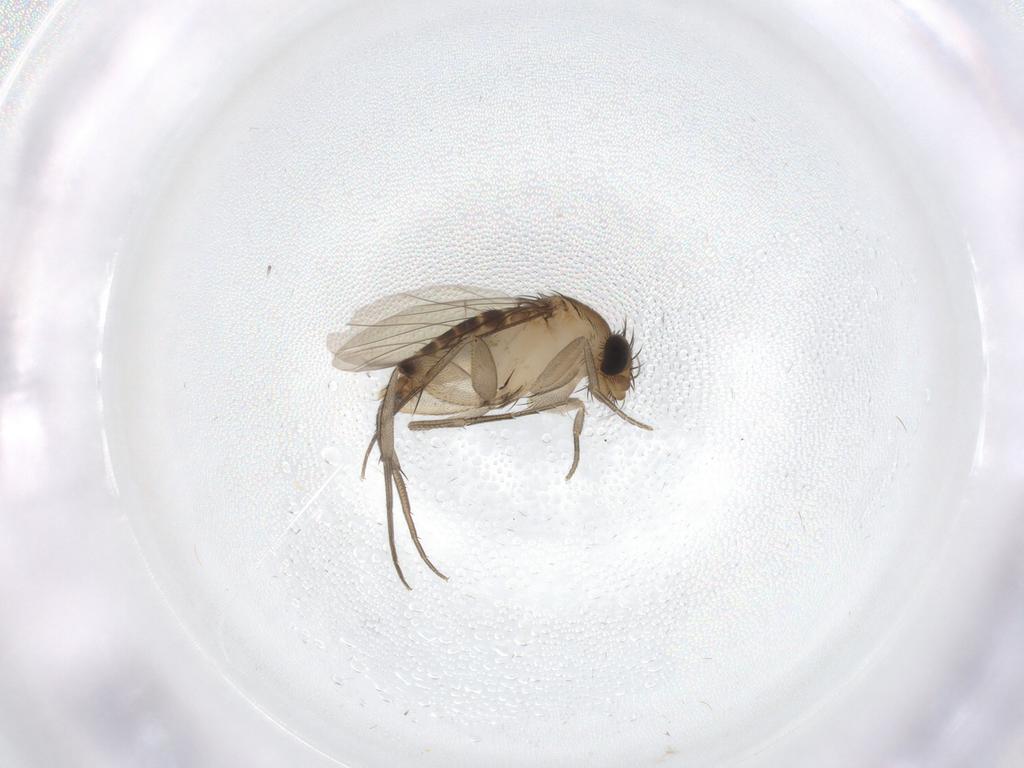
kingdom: Animalia
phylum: Arthropoda
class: Insecta
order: Diptera
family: Phoridae
